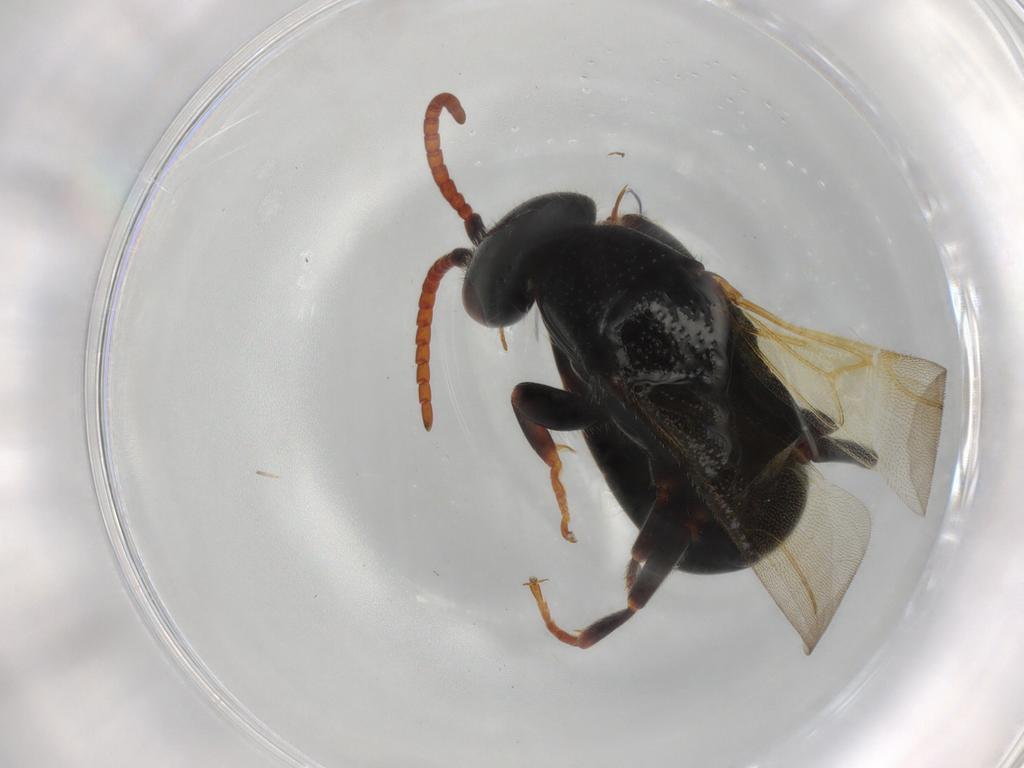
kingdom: Animalia
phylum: Arthropoda
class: Insecta
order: Hymenoptera
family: Bethylidae
